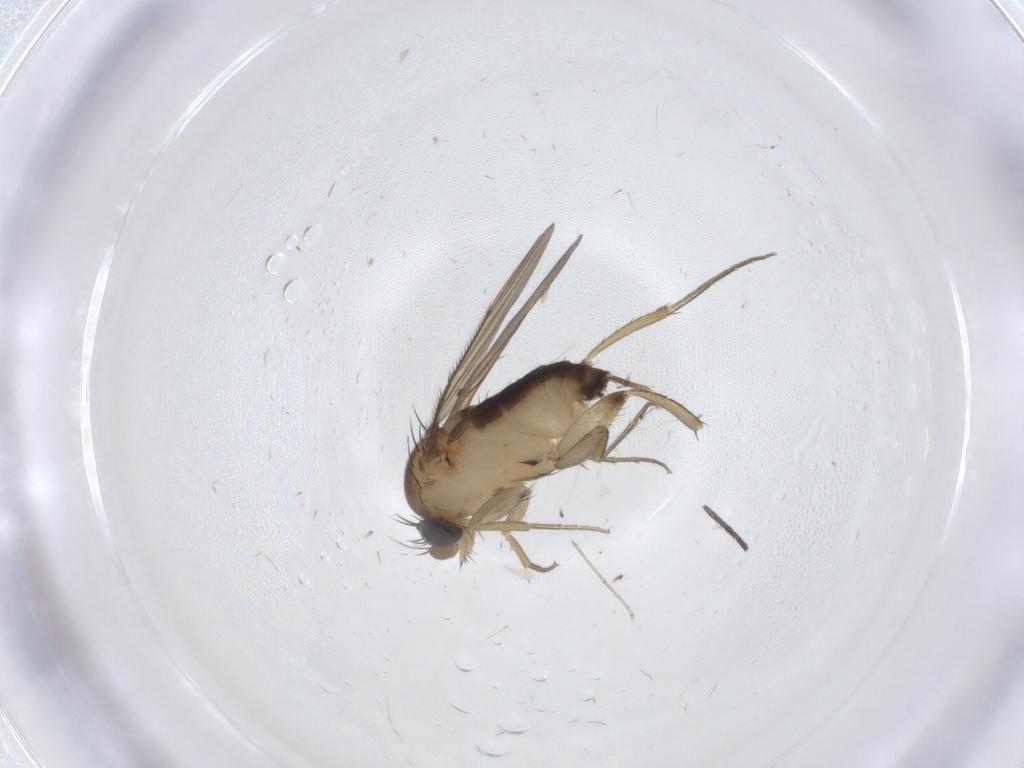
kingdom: Animalia
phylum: Arthropoda
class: Insecta
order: Diptera
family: Phoridae
